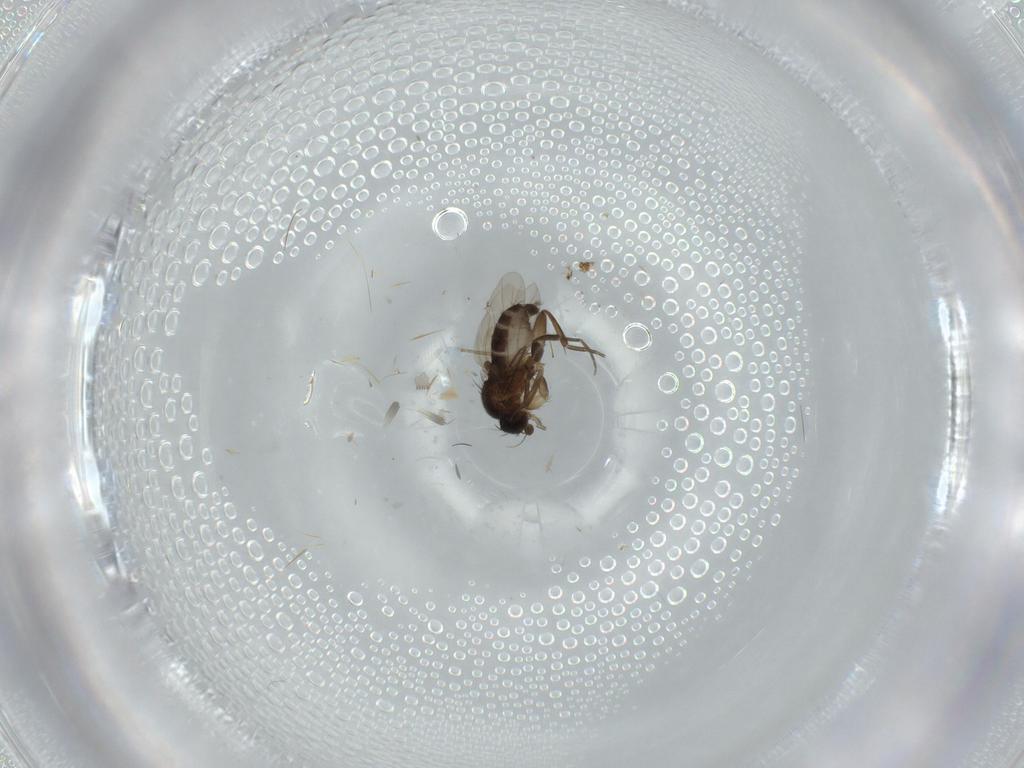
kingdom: Animalia
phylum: Arthropoda
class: Insecta
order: Diptera
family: Cecidomyiidae
